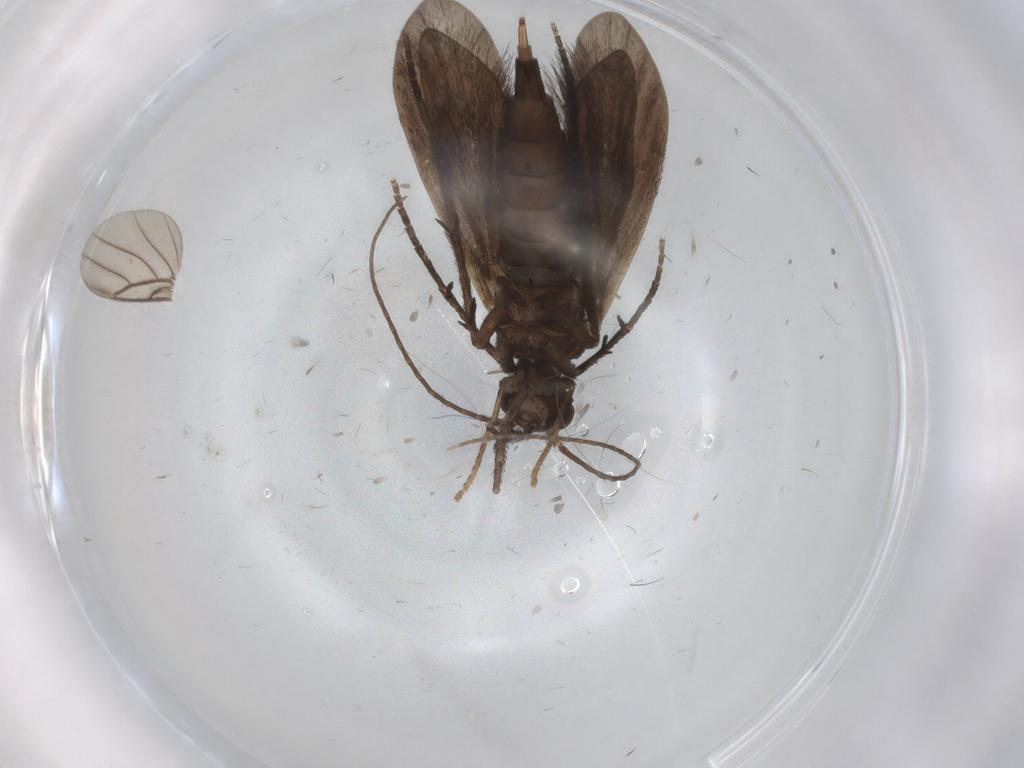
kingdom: Animalia
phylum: Arthropoda
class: Insecta
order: Trichoptera
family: Xiphocentronidae
